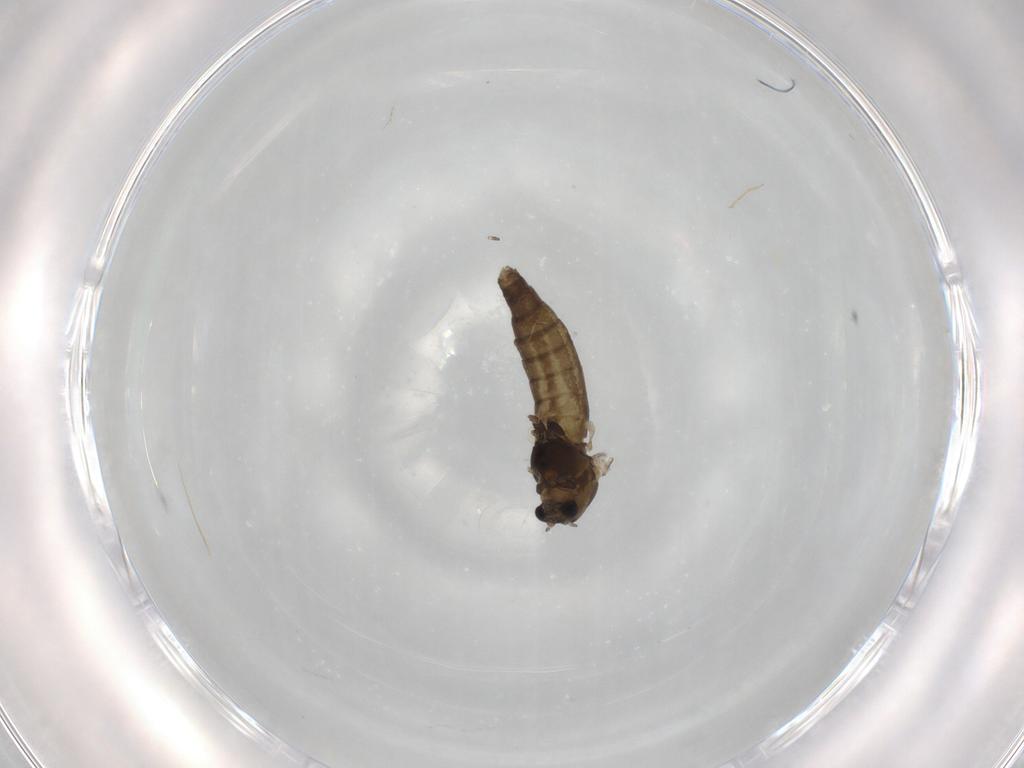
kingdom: Animalia
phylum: Arthropoda
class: Insecta
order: Diptera
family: Chironomidae
